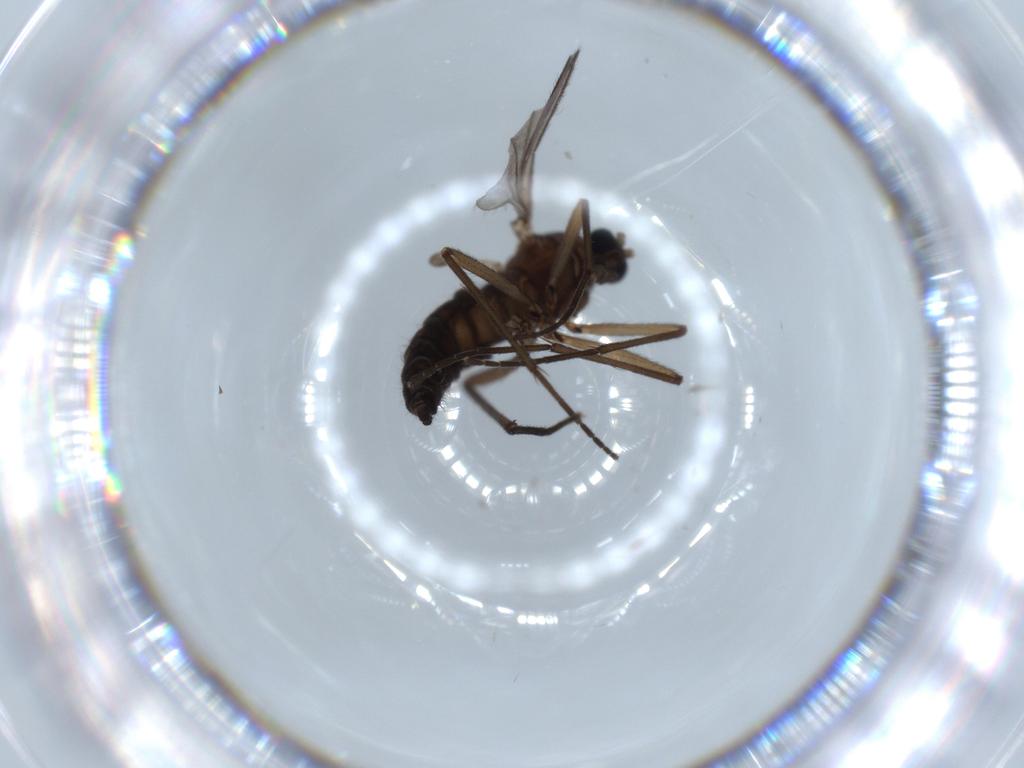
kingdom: Animalia
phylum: Arthropoda
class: Insecta
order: Diptera
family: Sciaridae
